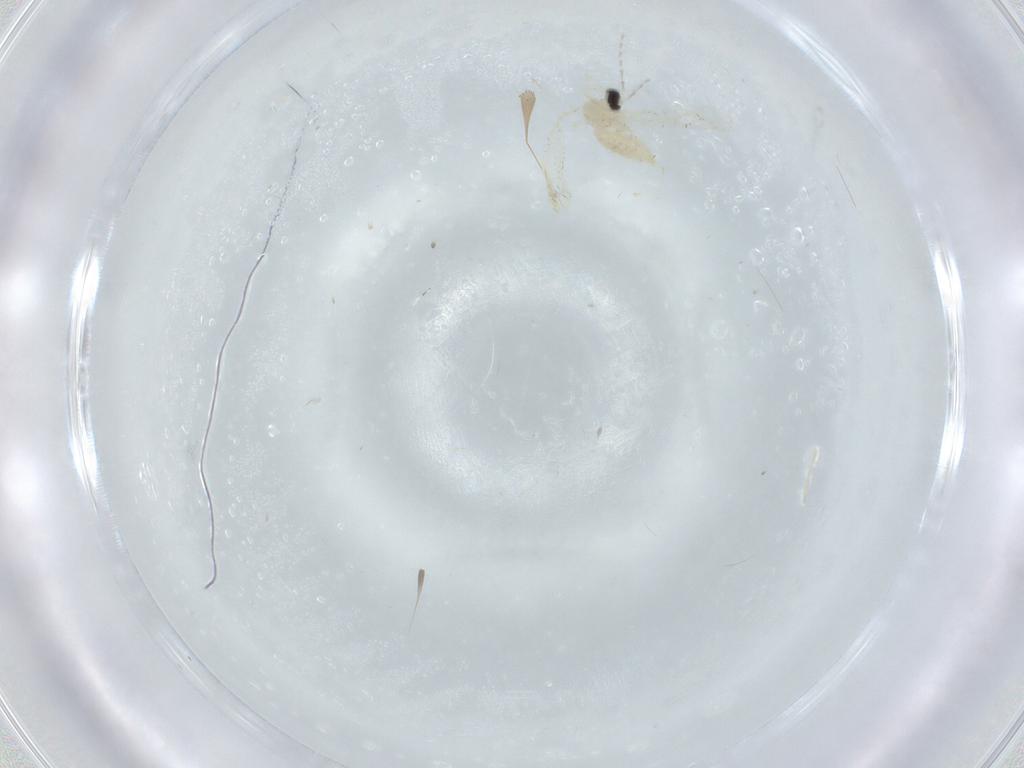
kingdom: Animalia
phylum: Arthropoda
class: Insecta
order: Diptera
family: Cecidomyiidae
